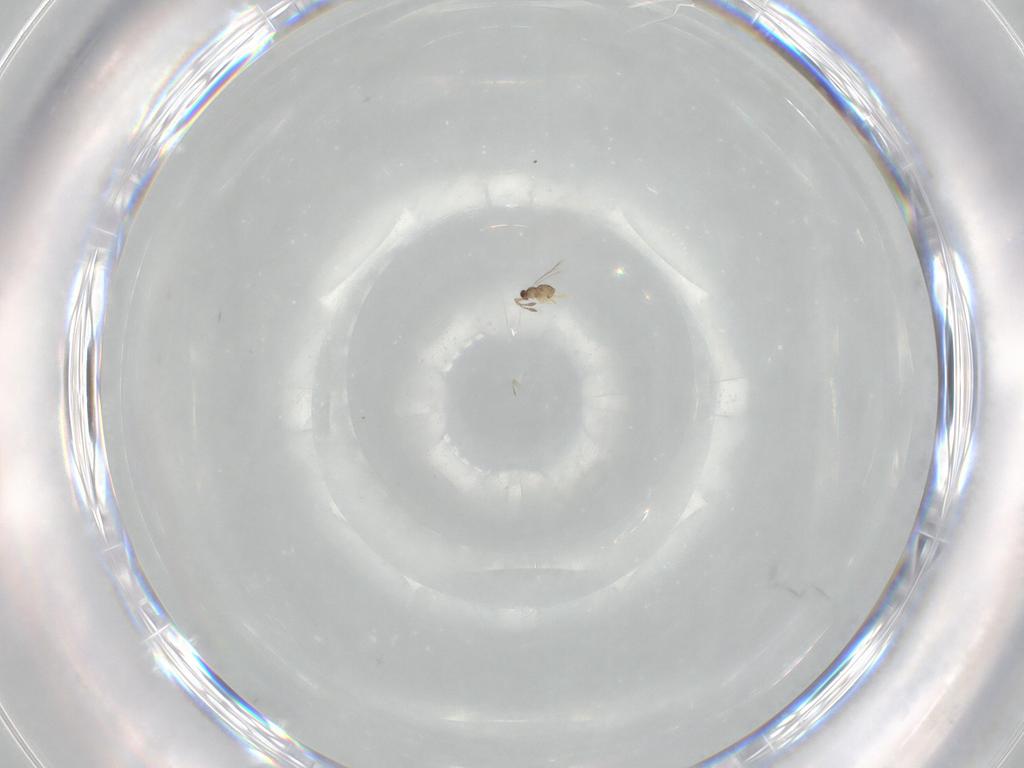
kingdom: Animalia
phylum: Arthropoda
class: Insecta
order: Hymenoptera
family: Mymaridae
